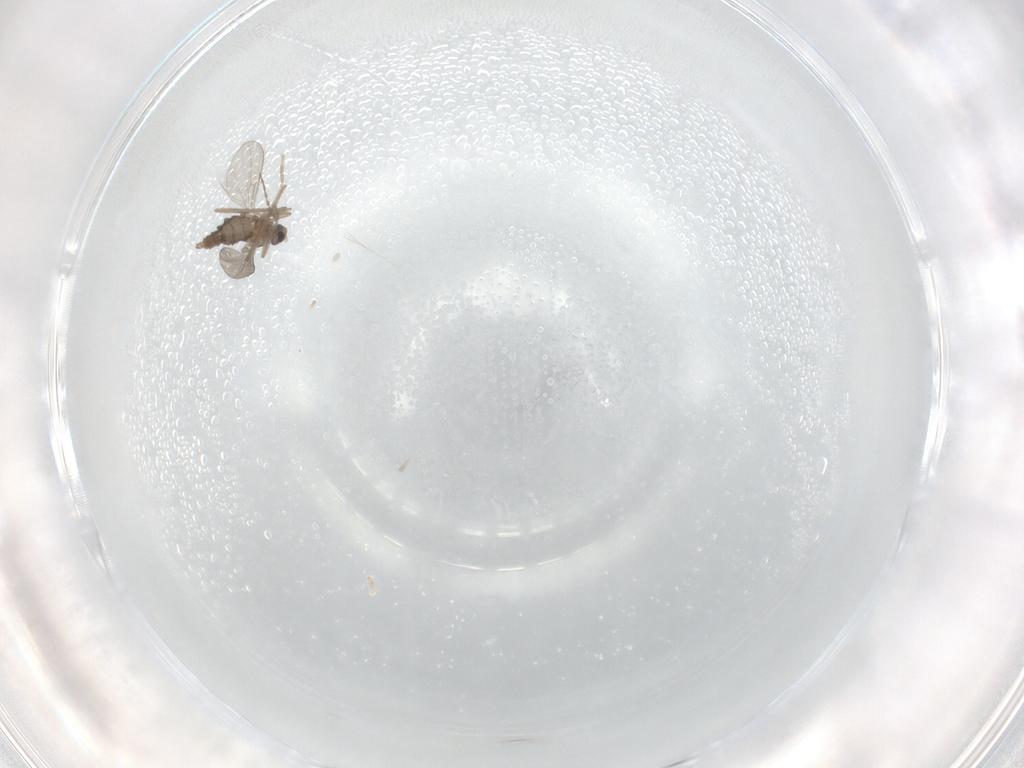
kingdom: Animalia
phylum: Arthropoda
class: Insecta
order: Diptera
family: Cecidomyiidae
